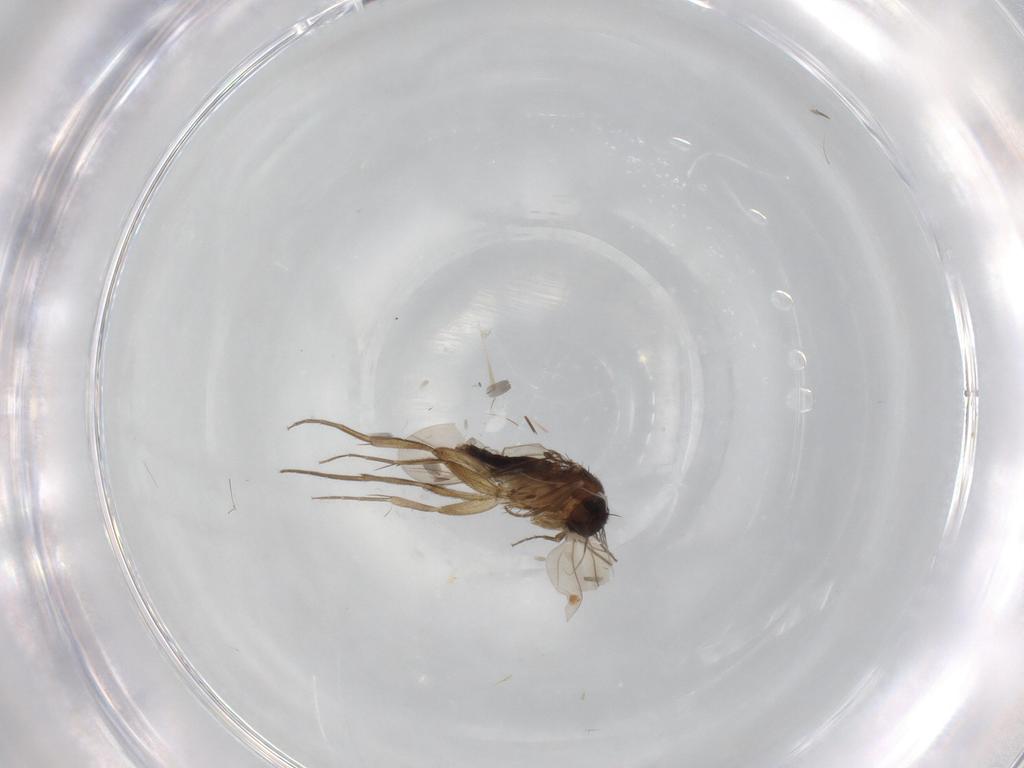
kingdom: Animalia
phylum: Arthropoda
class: Insecta
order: Diptera
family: Phoridae
